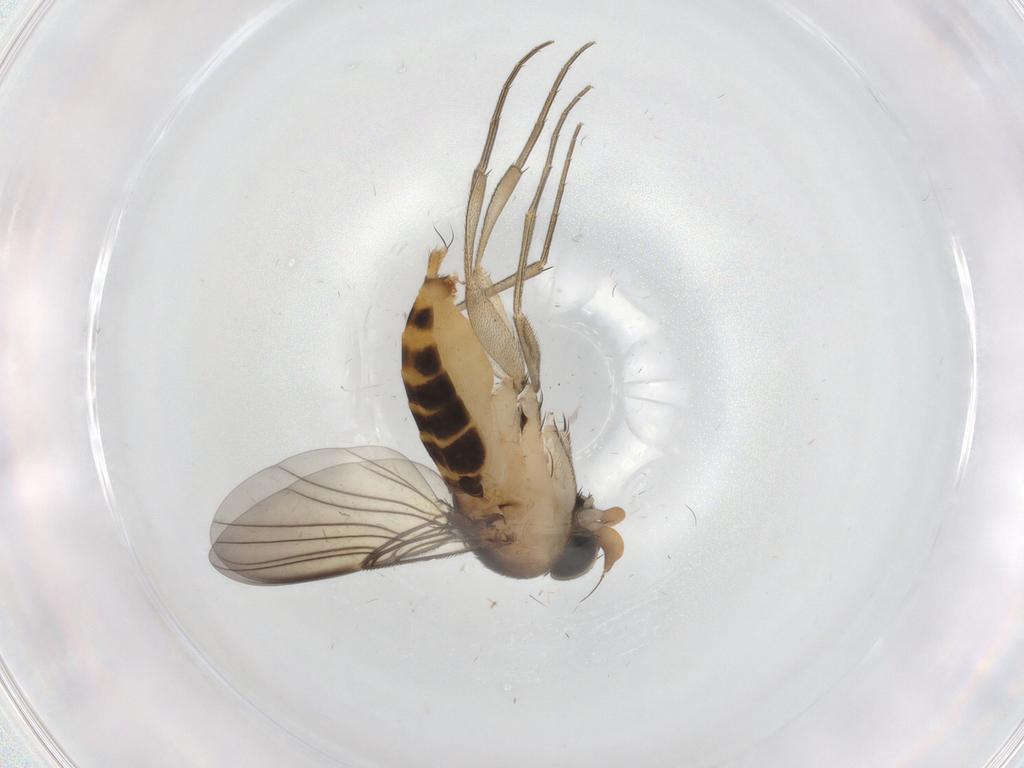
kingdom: Animalia
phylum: Arthropoda
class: Insecta
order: Diptera
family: Phoridae
